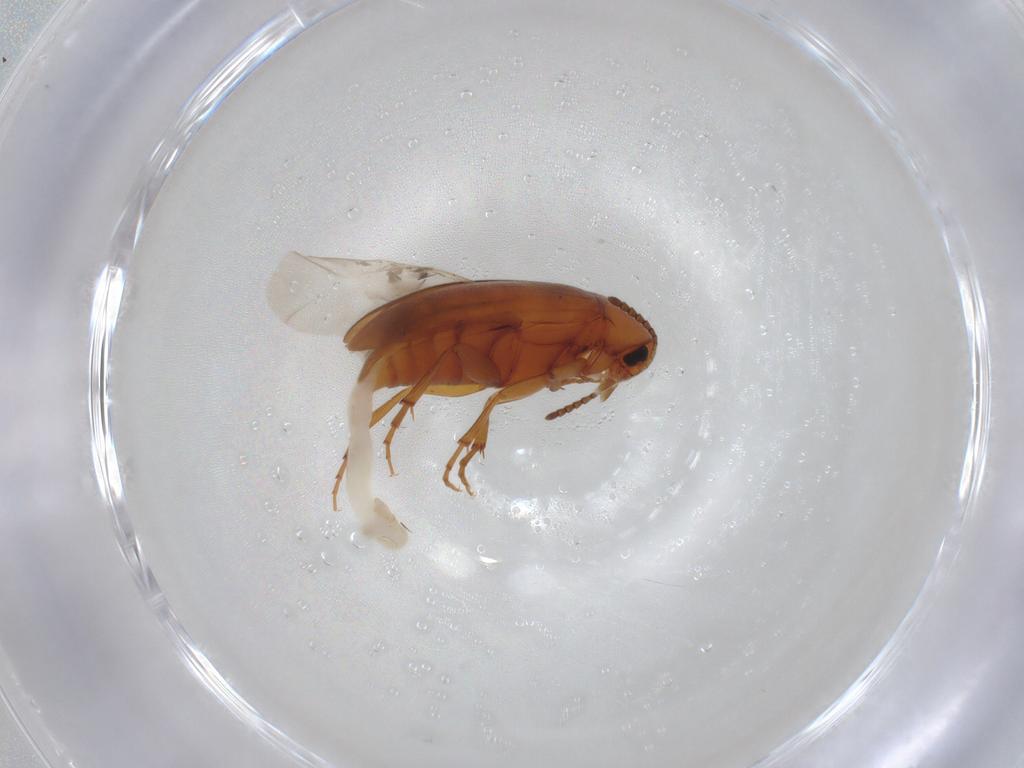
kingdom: Animalia
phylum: Arthropoda
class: Insecta
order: Coleoptera
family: Scraptiidae
